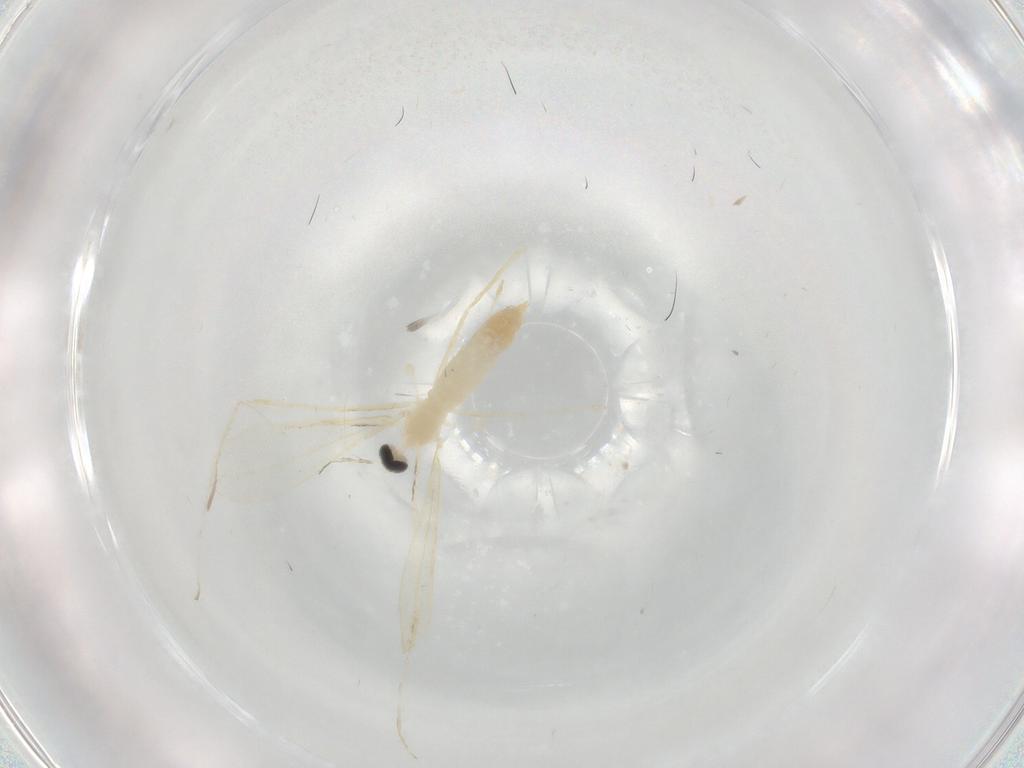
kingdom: Animalia
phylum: Arthropoda
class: Insecta
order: Diptera
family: Cecidomyiidae
